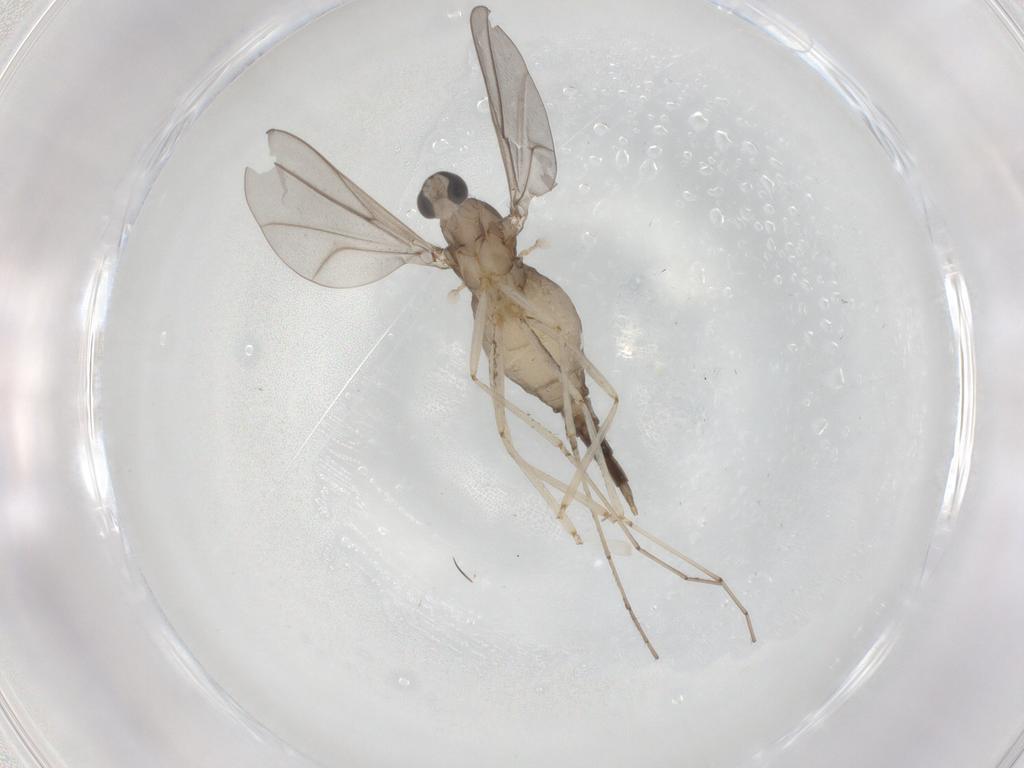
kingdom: Animalia
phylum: Arthropoda
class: Insecta
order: Diptera
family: Cecidomyiidae
